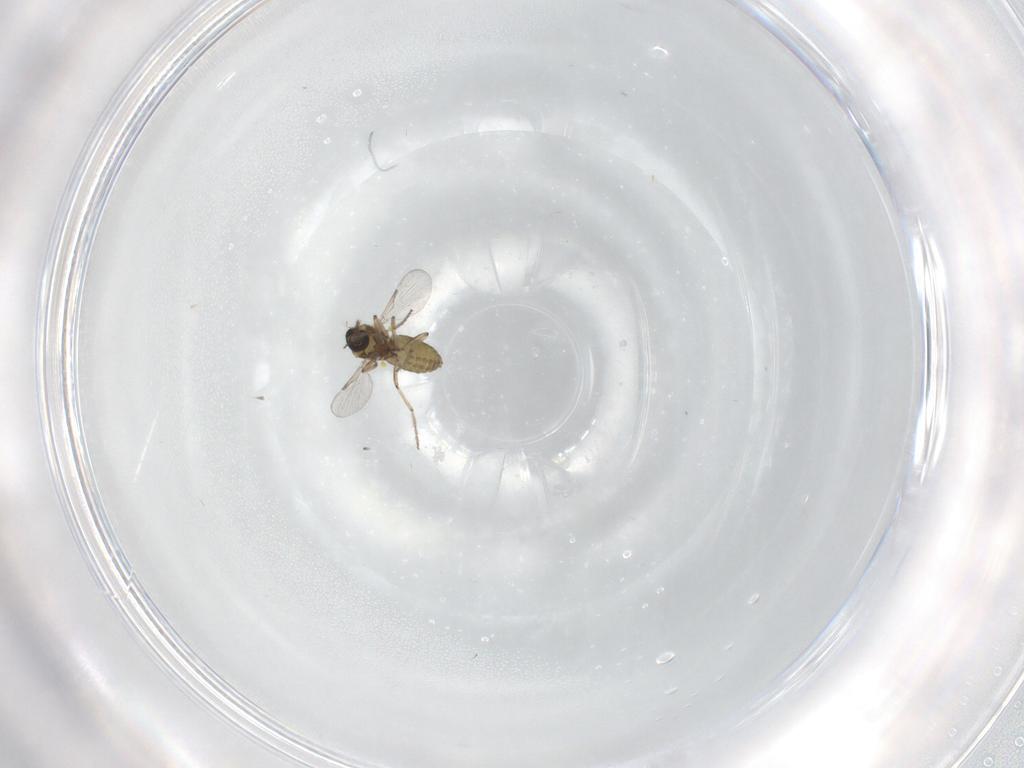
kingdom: Animalia
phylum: Arthropoda
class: Insecta
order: Diptera
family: Ceratopogonidae
